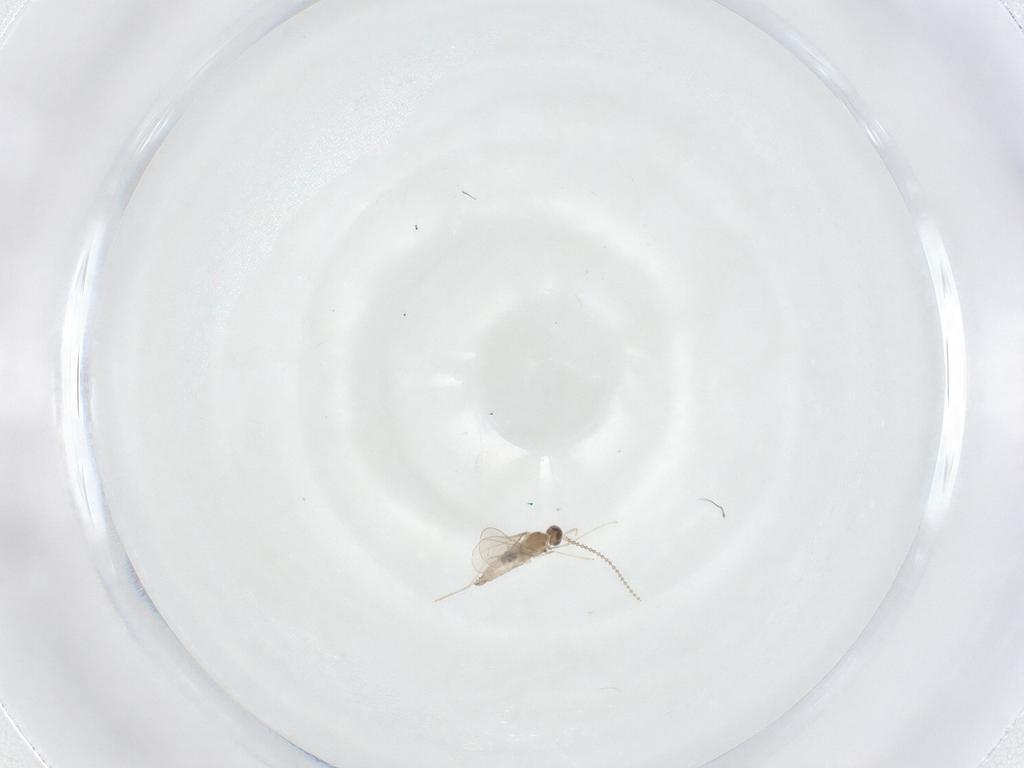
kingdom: Animalia
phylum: Arthropoda
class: Insecta
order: Diptera
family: Chironomidae
